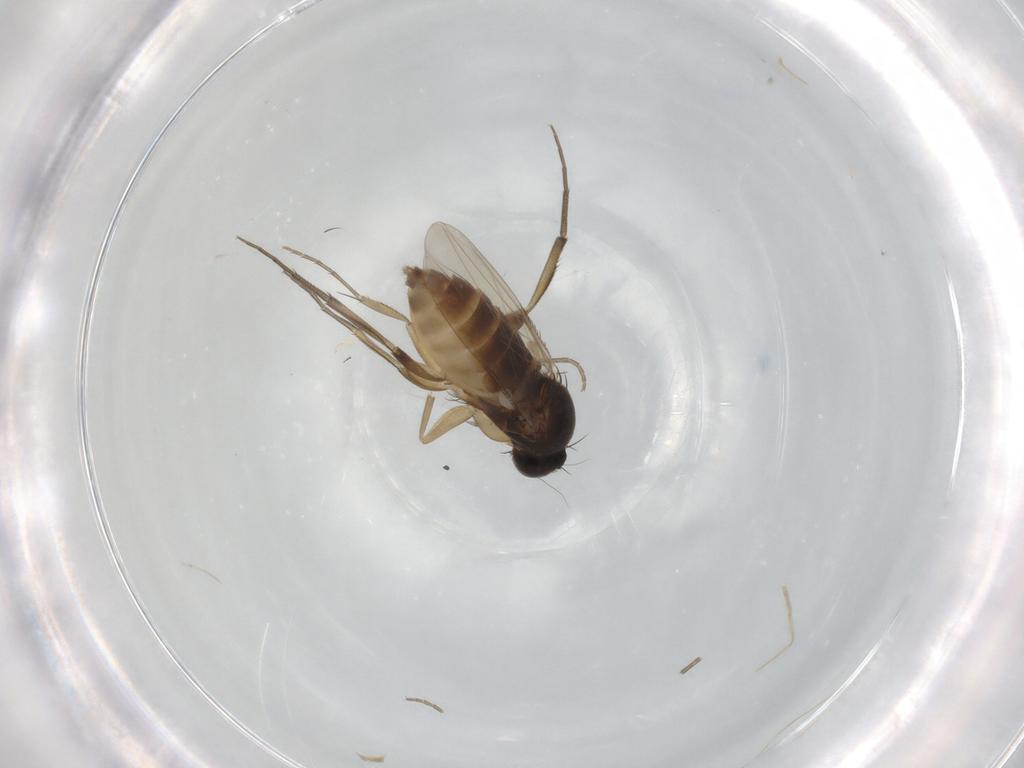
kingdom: Animalia
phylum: Arthropoda
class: Insecta
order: Diptera
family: Phoridae
